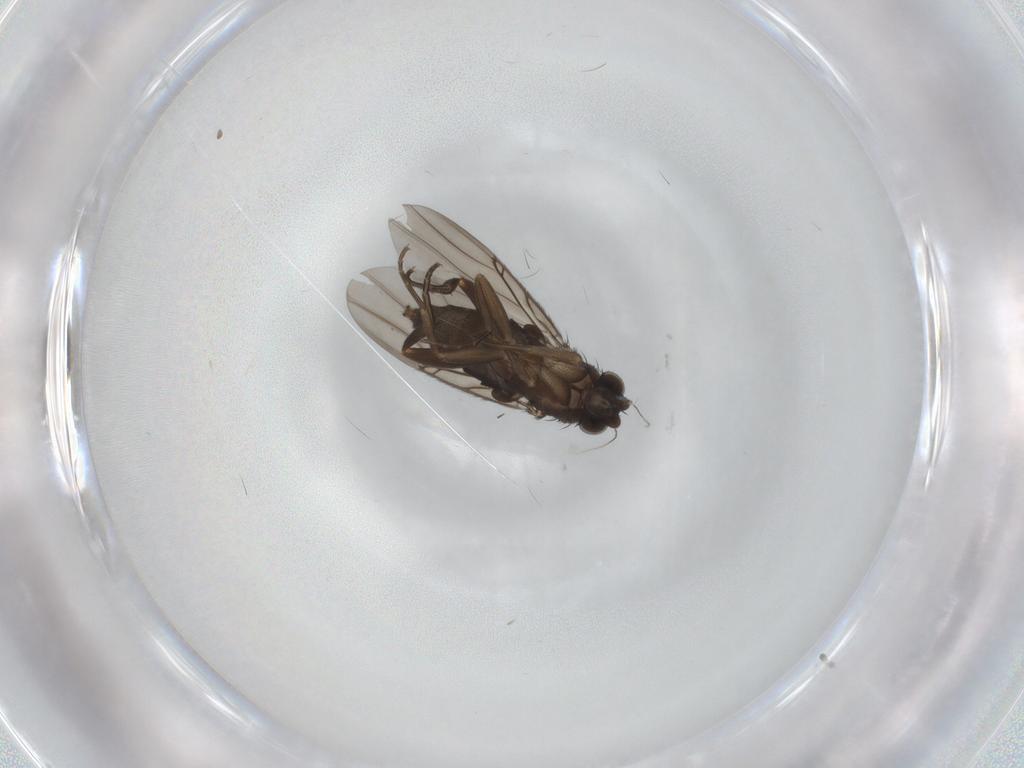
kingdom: Animalia
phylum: Arthropoda
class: Insecta
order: Diptera
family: Phoridae
